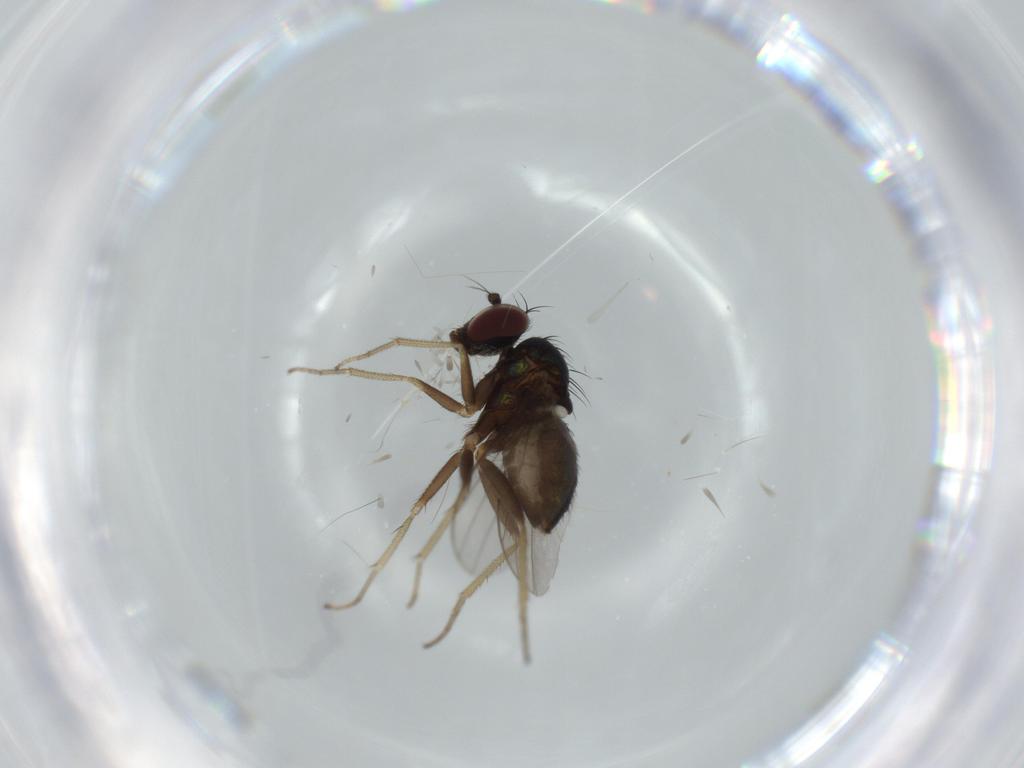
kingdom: Animalia
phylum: Arthropoda
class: Insecta
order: Diptera
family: Dolichopodidae
